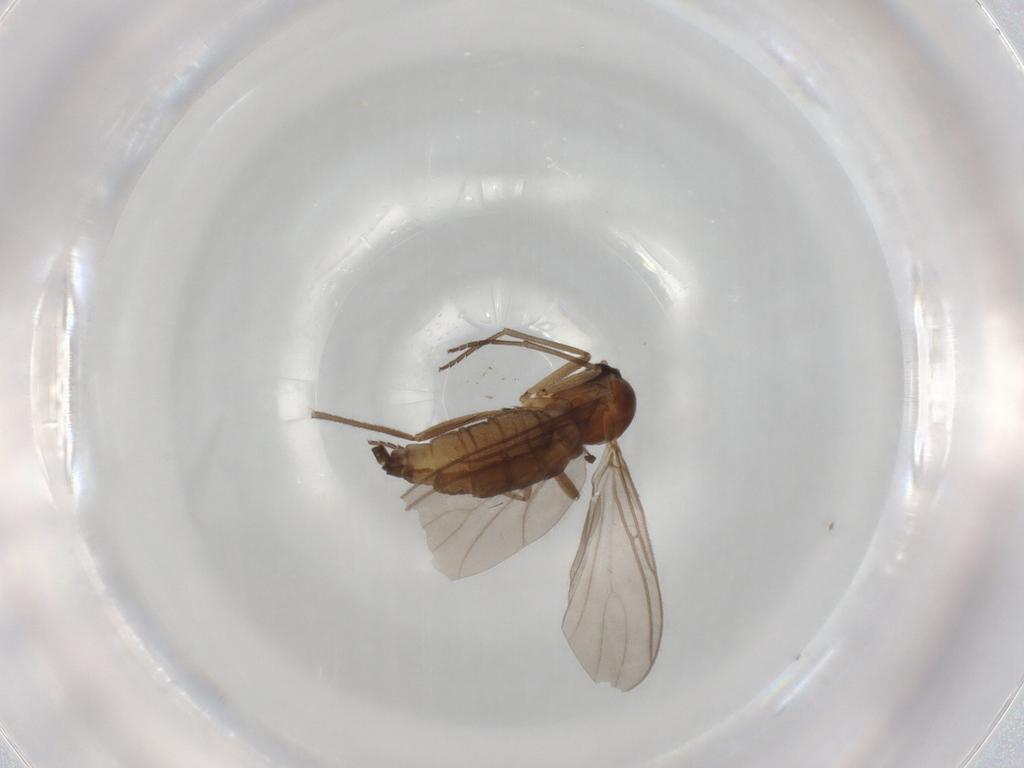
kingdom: Animalia
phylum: Arthropoda
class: Insecta
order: Diptera
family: Sciaridae
